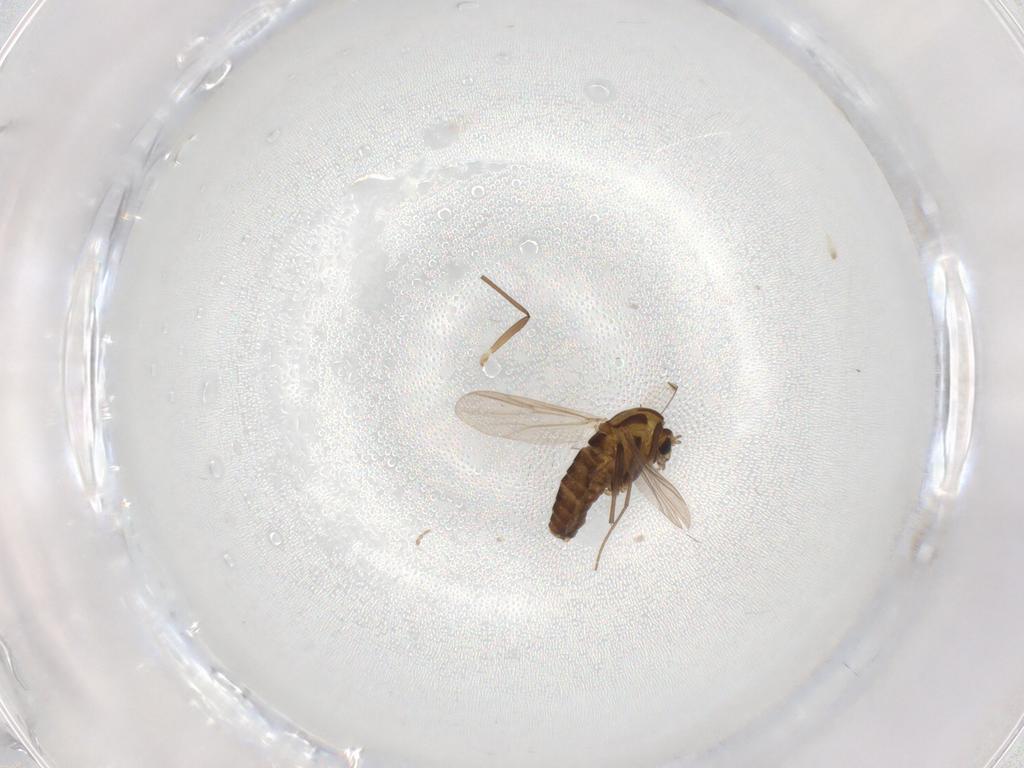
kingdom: Animalia
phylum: Arthropoda
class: Insecta
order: Diptera
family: Chironomidae
